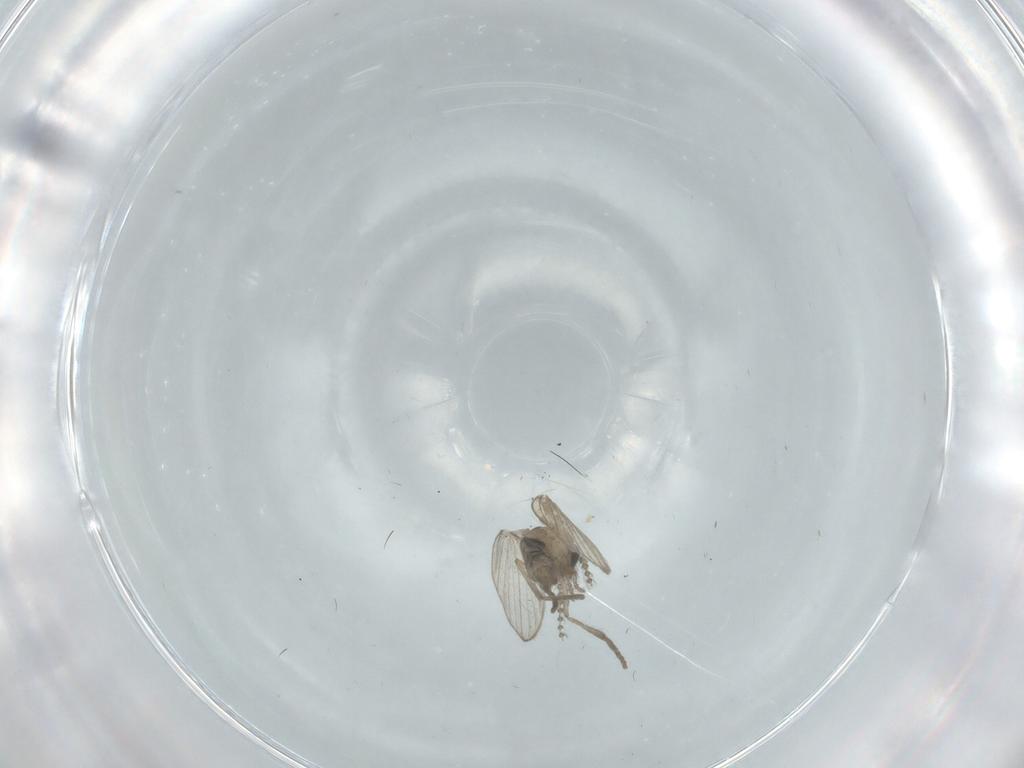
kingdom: Animalia
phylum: Arthropoda
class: Insecta
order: Diptera
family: Psychodidae
